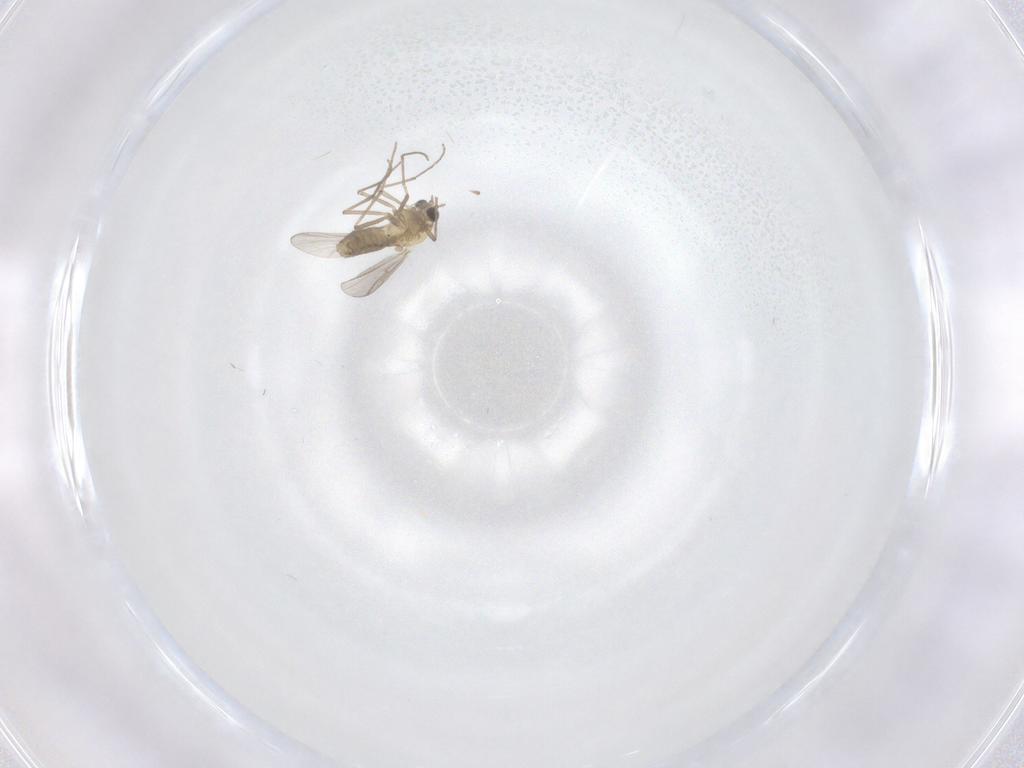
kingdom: Animalia
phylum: Arthropoda
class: Insecta
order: Diptera
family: Chironomidae
